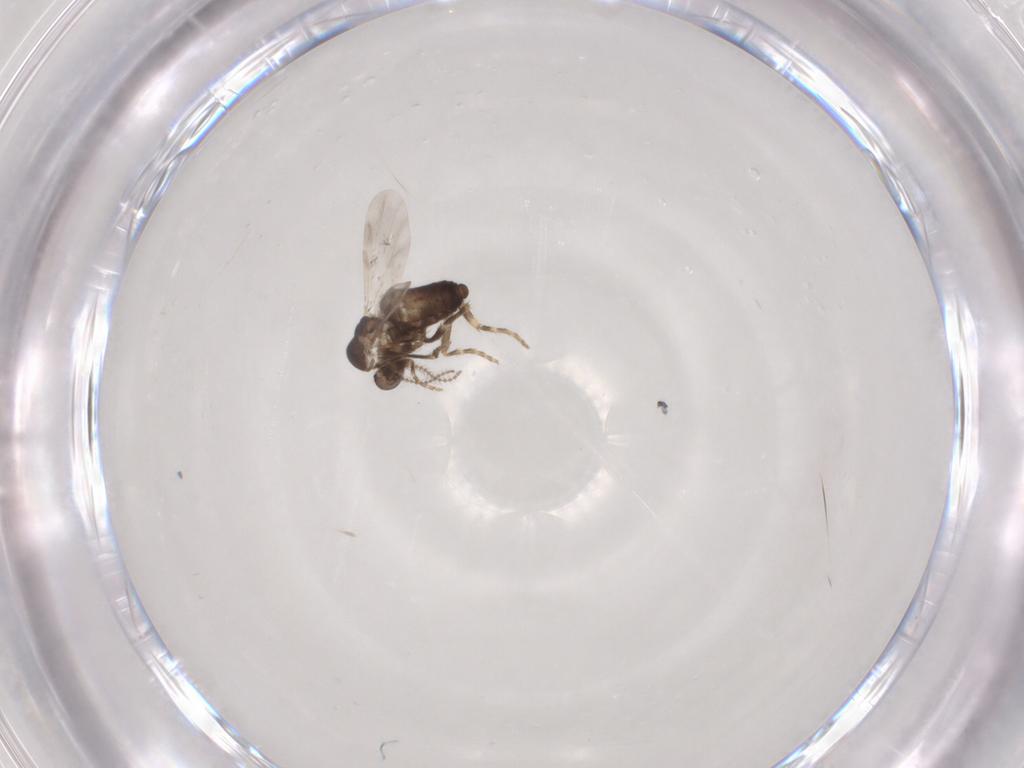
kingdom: Animalia
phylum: Arthropoda
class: Insecta
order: Diptera
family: Ceratopogonidae
